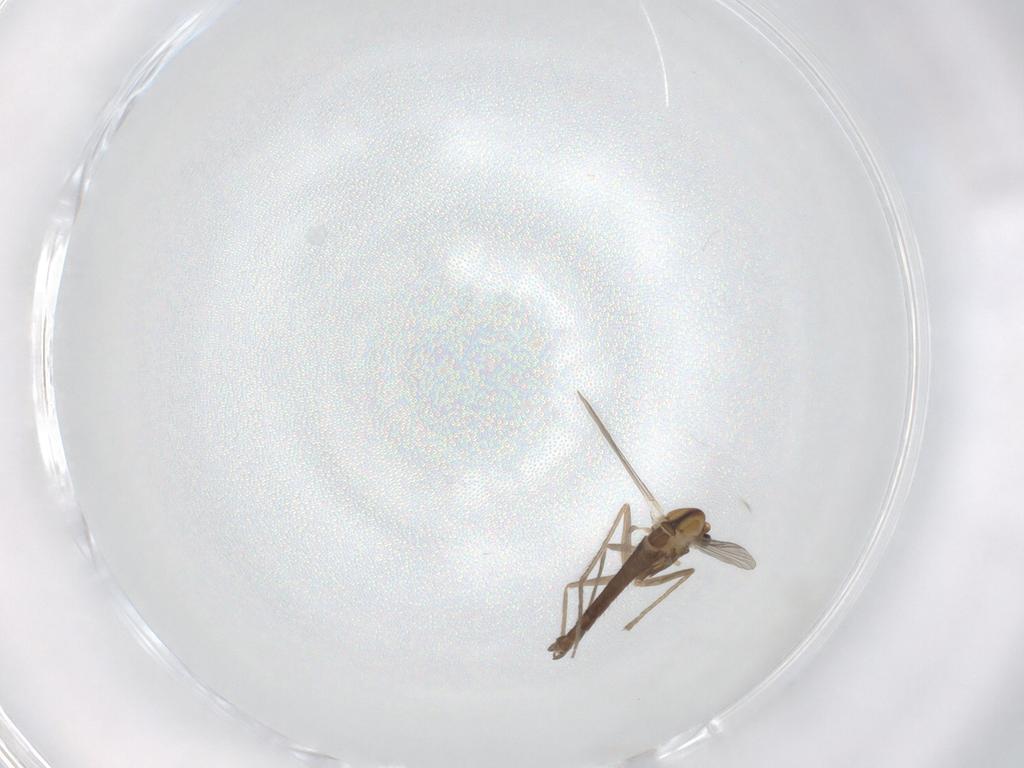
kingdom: Animalia
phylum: Arthropoda
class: Insecta
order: Diptera
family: Chironomidae
